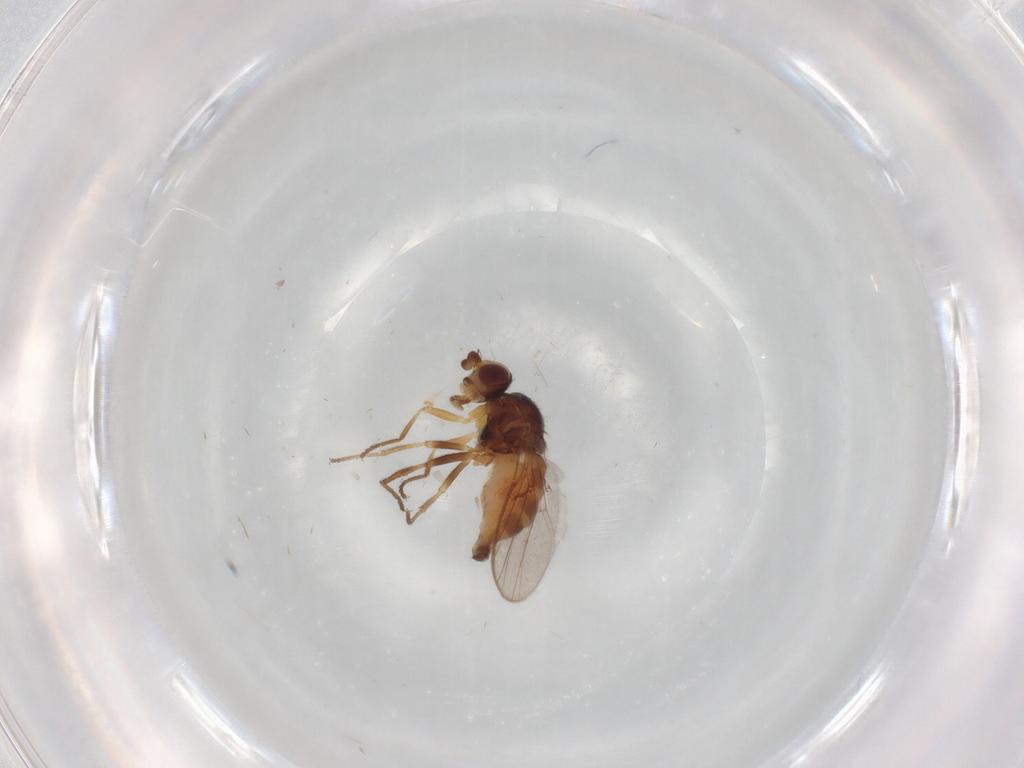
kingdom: Animalia
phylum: Arthropoda
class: Insecta
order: Diptera
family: Chloropidae
